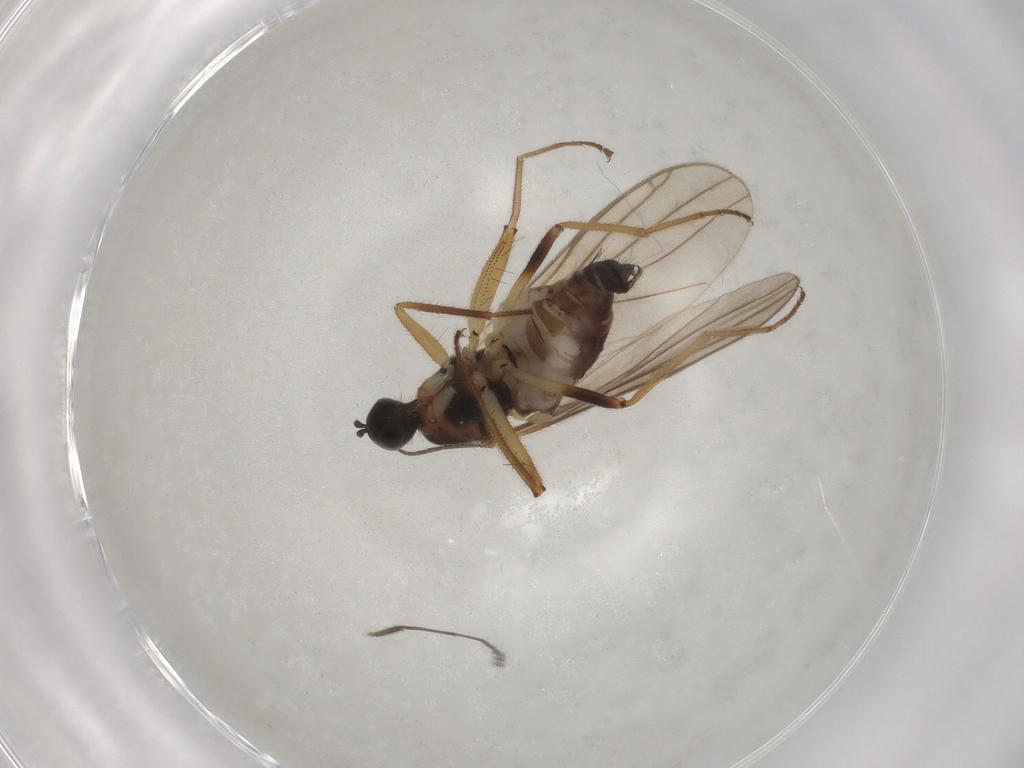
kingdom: Animalia
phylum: Arthropoda
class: Insecta
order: Diptera
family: Hybotidae
